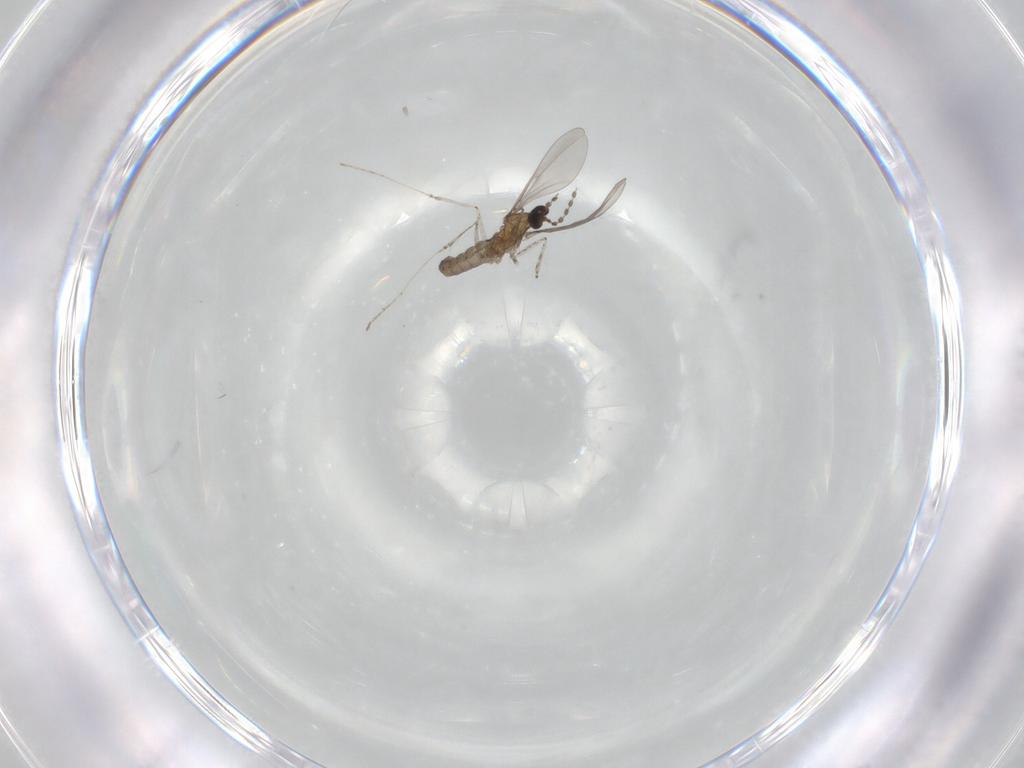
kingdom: Animalia
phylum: Arthropoda
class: Insecta
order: Diptera
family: Cecidomyiidae
